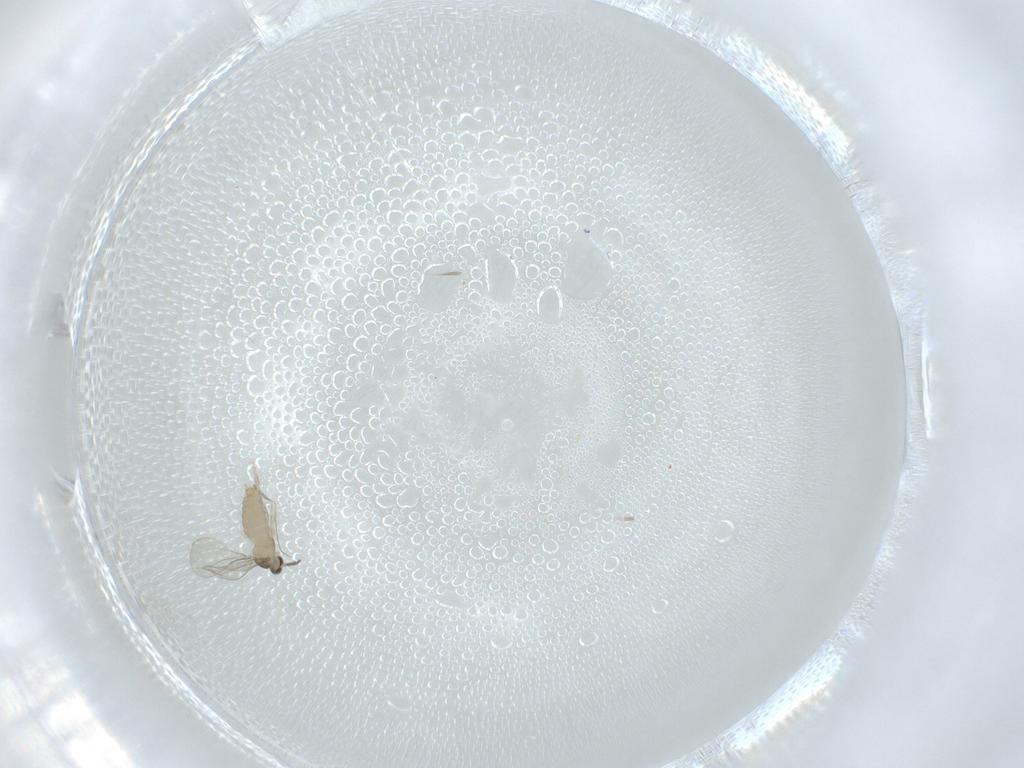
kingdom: Animalia
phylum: Arthropoda
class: Insecta
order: Diptera
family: Cecidomyiidae
